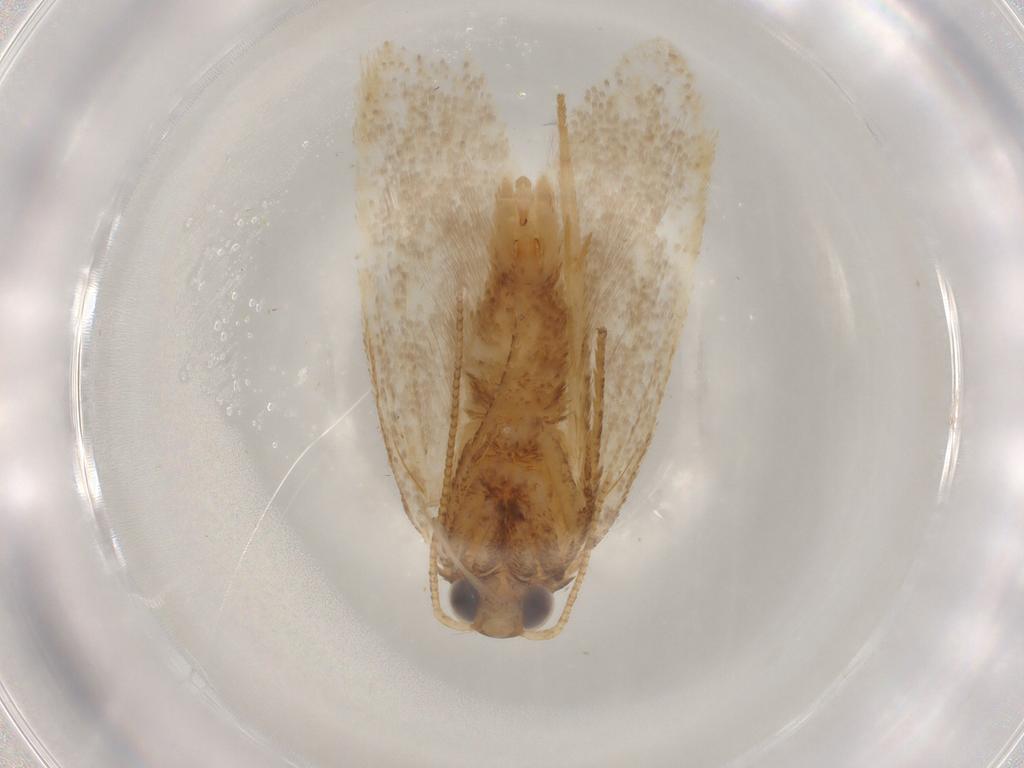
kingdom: Animalia
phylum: Arthropoda
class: Insecta
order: Lepidoptera
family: Autostichidae
